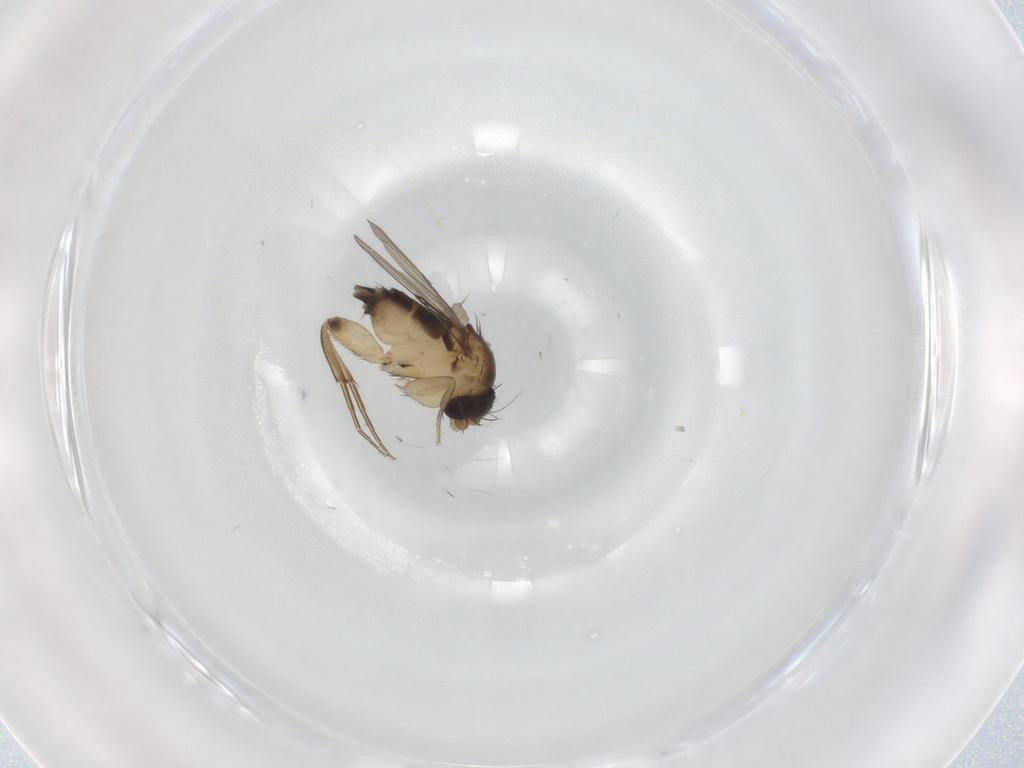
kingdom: Animalia
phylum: Arthropoda
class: Insecta
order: Diptera
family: Phoridae
